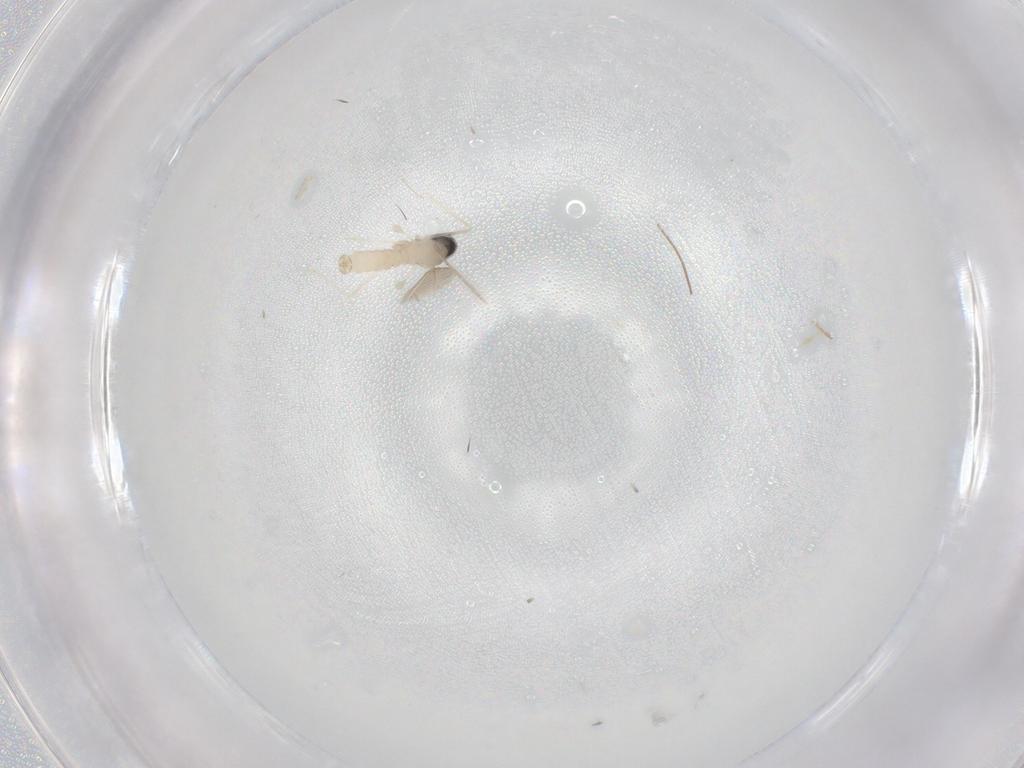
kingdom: Animalia
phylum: Arthropoda
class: Insecta
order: Diptera
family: Cecidomyiidae
